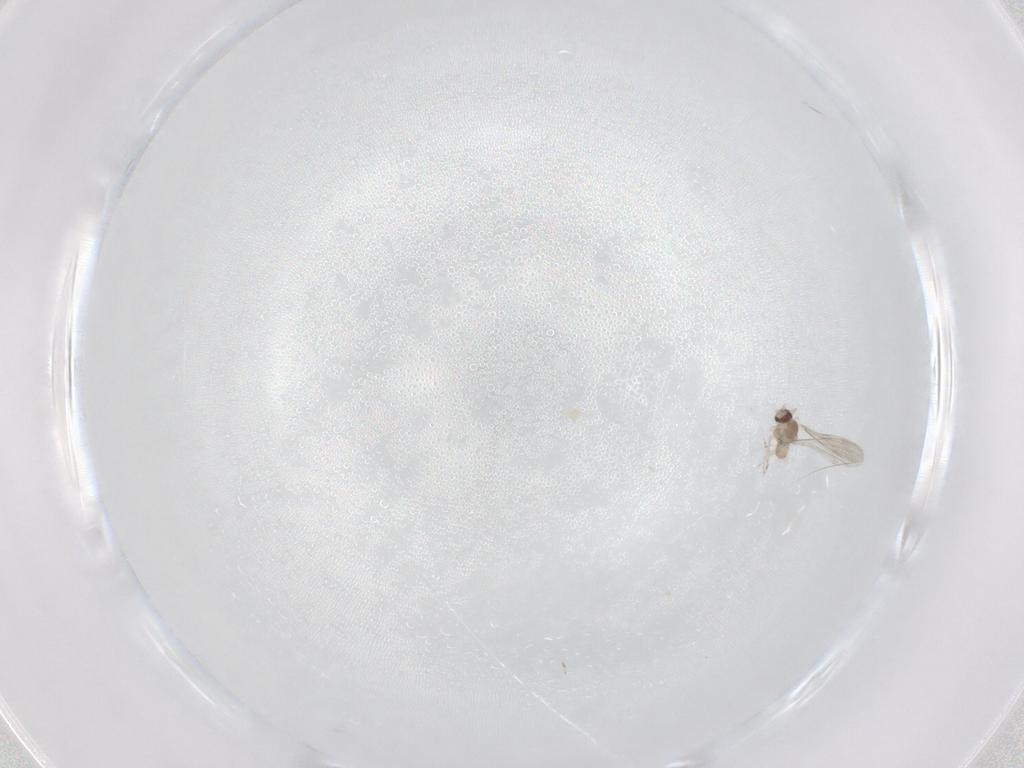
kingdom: Animalia
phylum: Arthropoda
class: Insecta
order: Diptera
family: Cecidomyiidae
